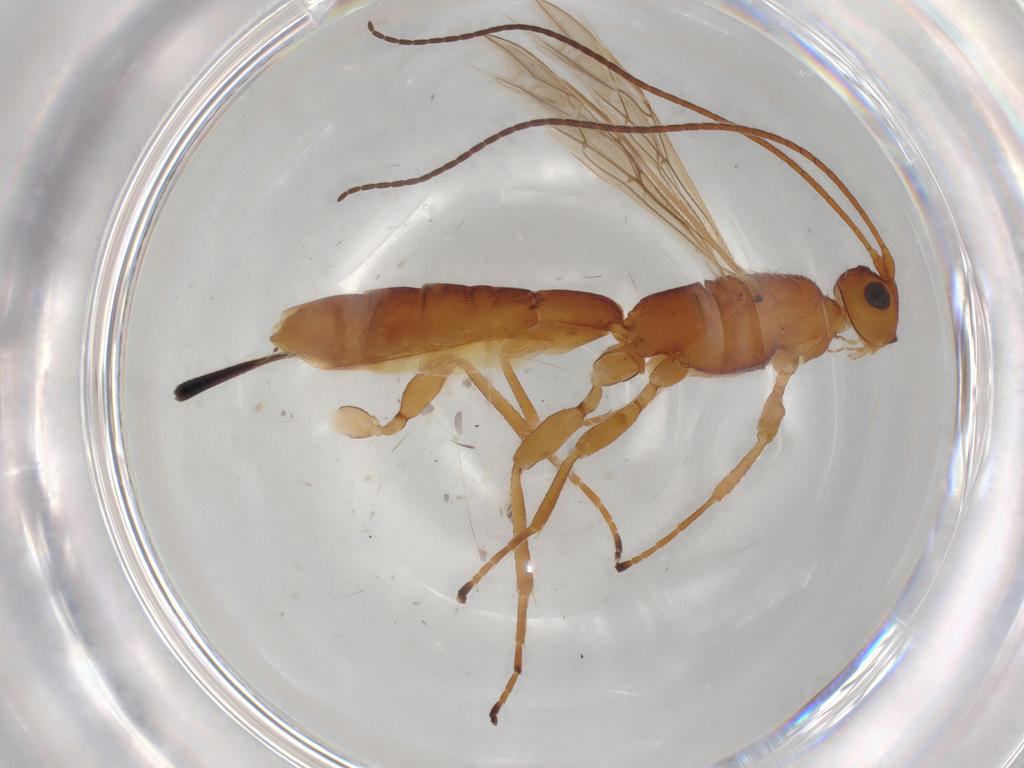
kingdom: Animalia
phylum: Arthropoda
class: Insecta
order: Hymenoptera
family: Braconidae
